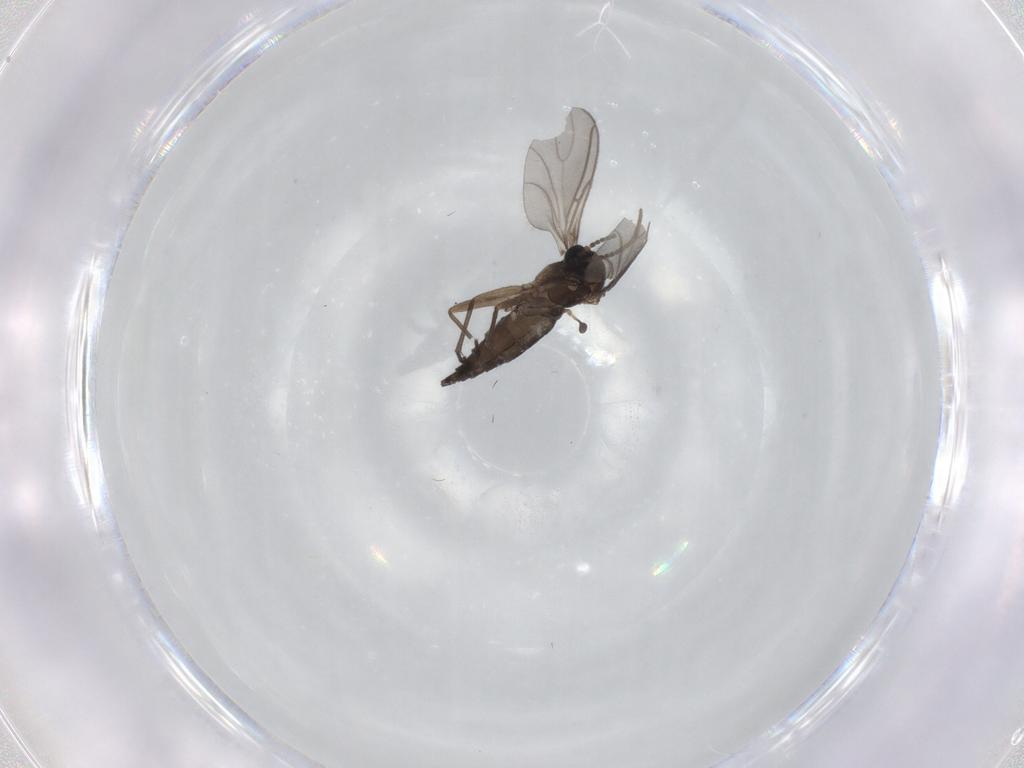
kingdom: Animalia
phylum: Arthropoda
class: Insecta
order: Diptera
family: Sciaridae
